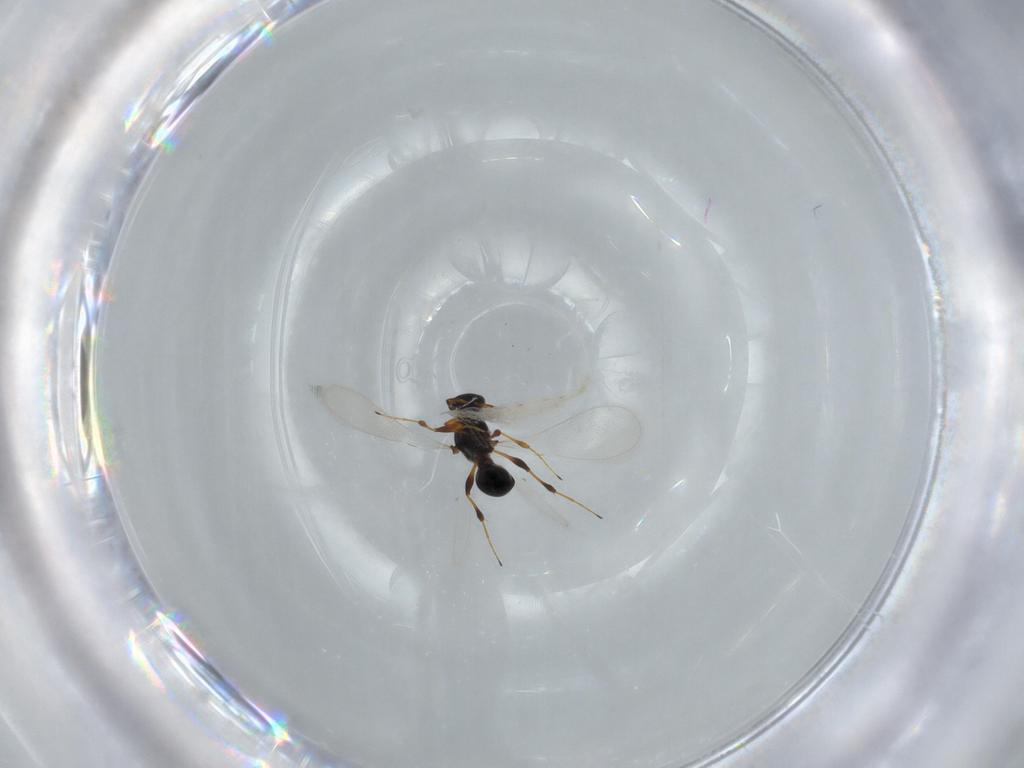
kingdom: Animalia
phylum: Arthropoda
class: Insecta
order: Hymenoptera
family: Platygastridae
